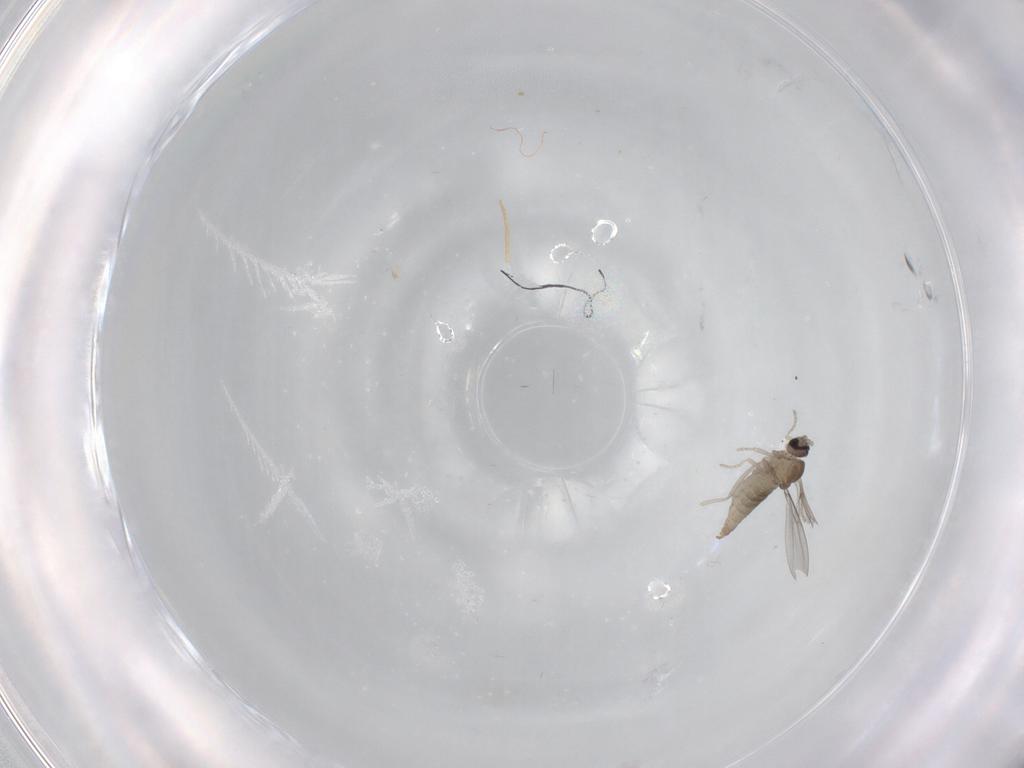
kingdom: Animalia
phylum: Arthropoda
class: Insecta
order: Diptera
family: Cecidomyiidae
